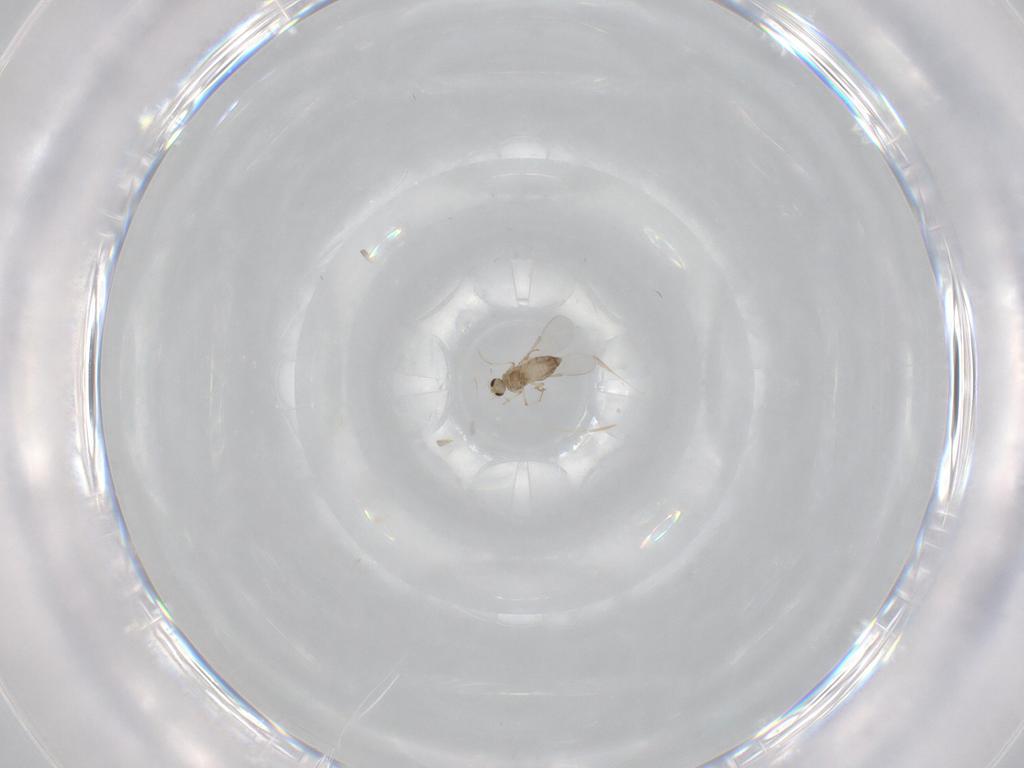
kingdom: Animalia
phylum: Arthropoda
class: Insecta
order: Diptera
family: Chironomidae
